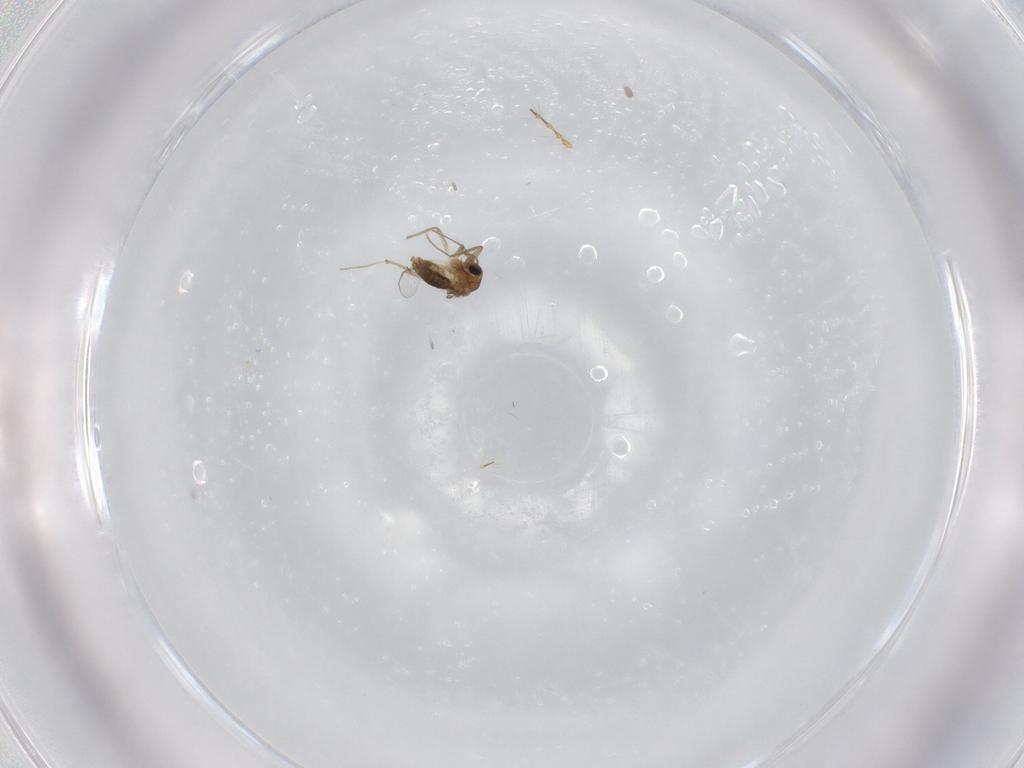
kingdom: Animalia
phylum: Arthropoda
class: Insecta
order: Diptera
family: Chironomidae
